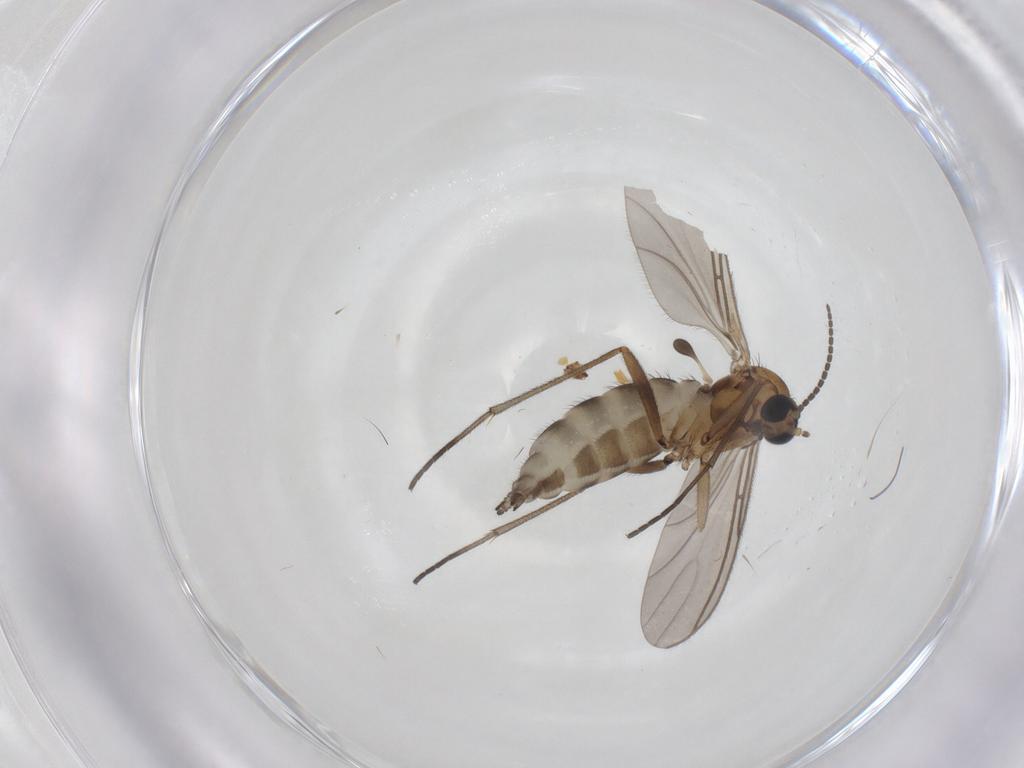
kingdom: Animalia
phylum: Arthropoda
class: Insecta
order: Diptera
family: Sciaridae
